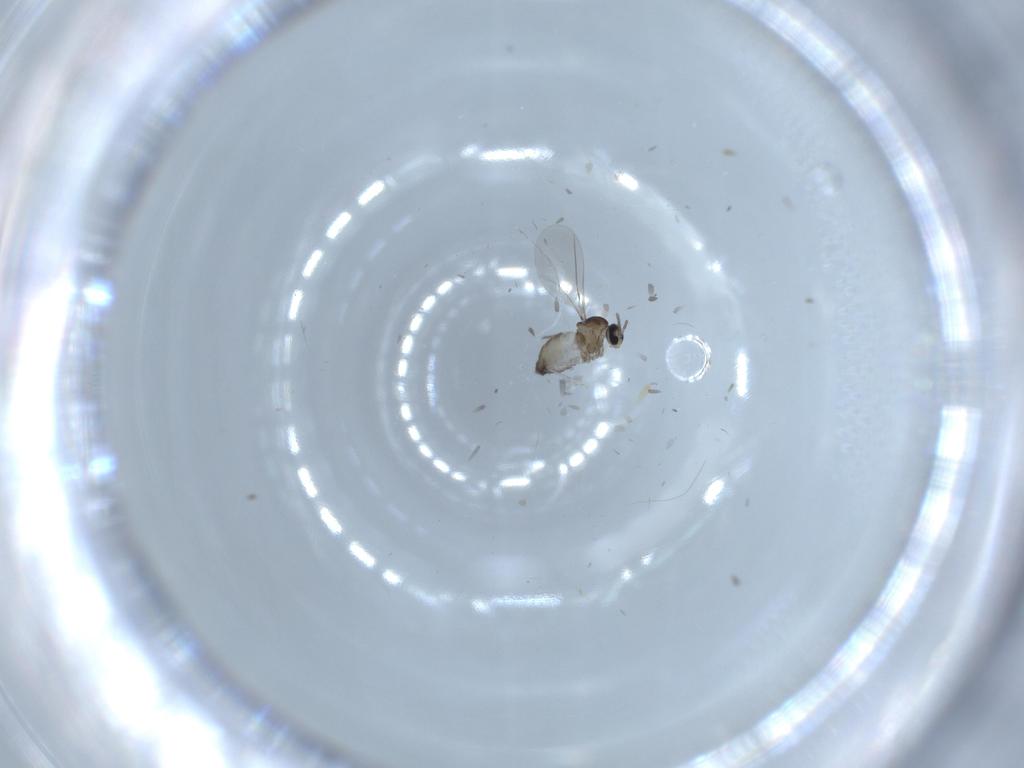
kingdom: Animalia
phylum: Arthropoda
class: Insecta
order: Diptera
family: Cecidomyiidae
